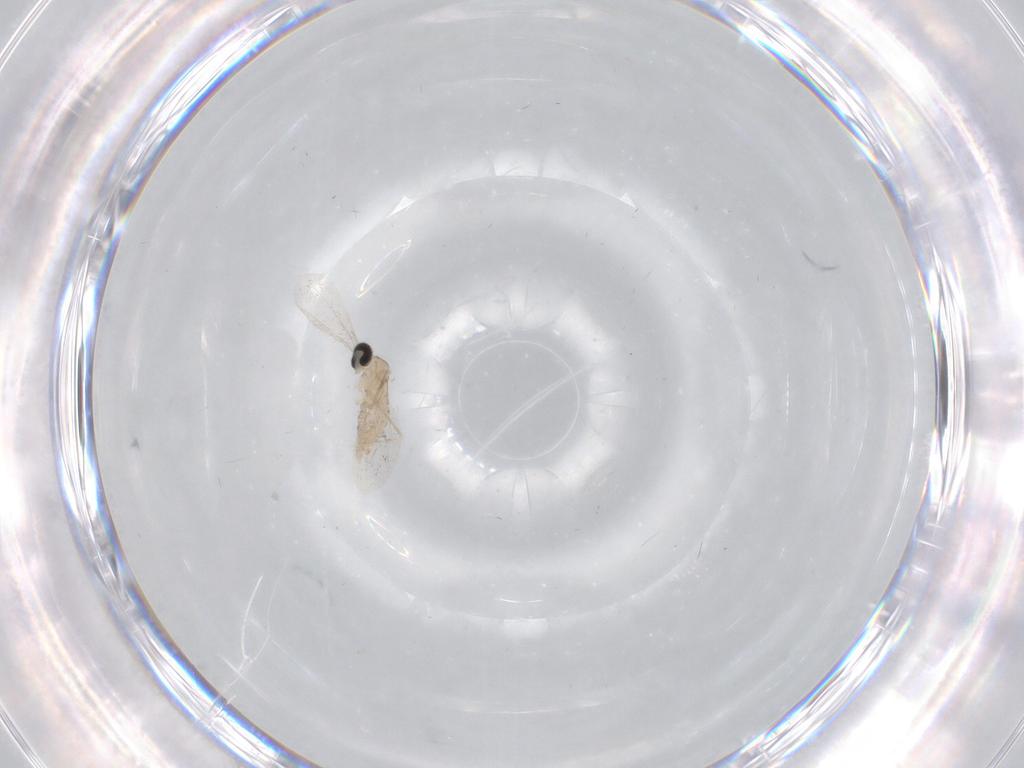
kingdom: Animalia
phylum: Arthropoda
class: Insecta
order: Diptera
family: Cecidomyiidae
